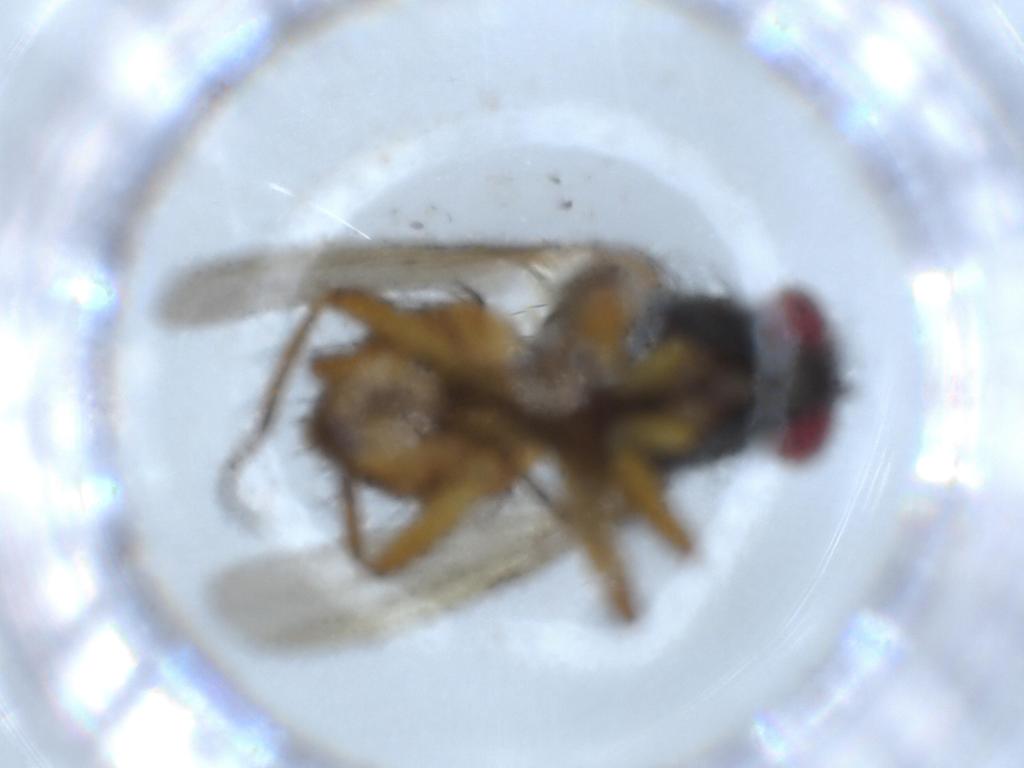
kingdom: Animalia
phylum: Arthropoda
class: Insecta
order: Diptera
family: Muscidae
